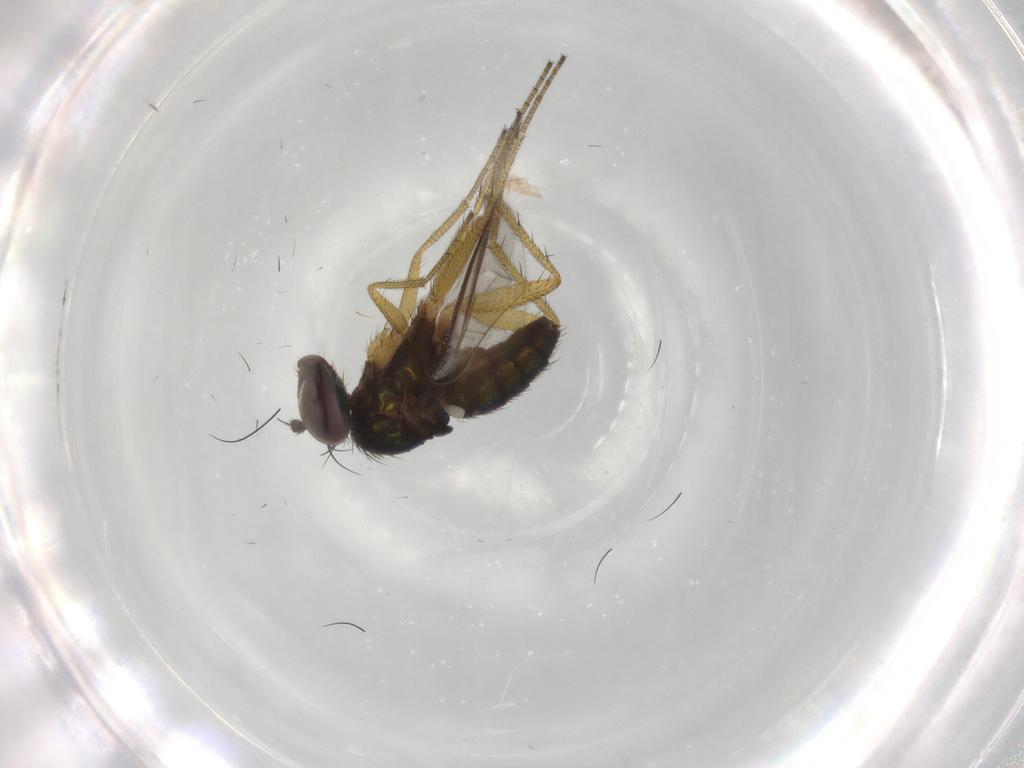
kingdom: Animalia
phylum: Arthropoda
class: Insecta
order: Diptera
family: Dolichopodidae
